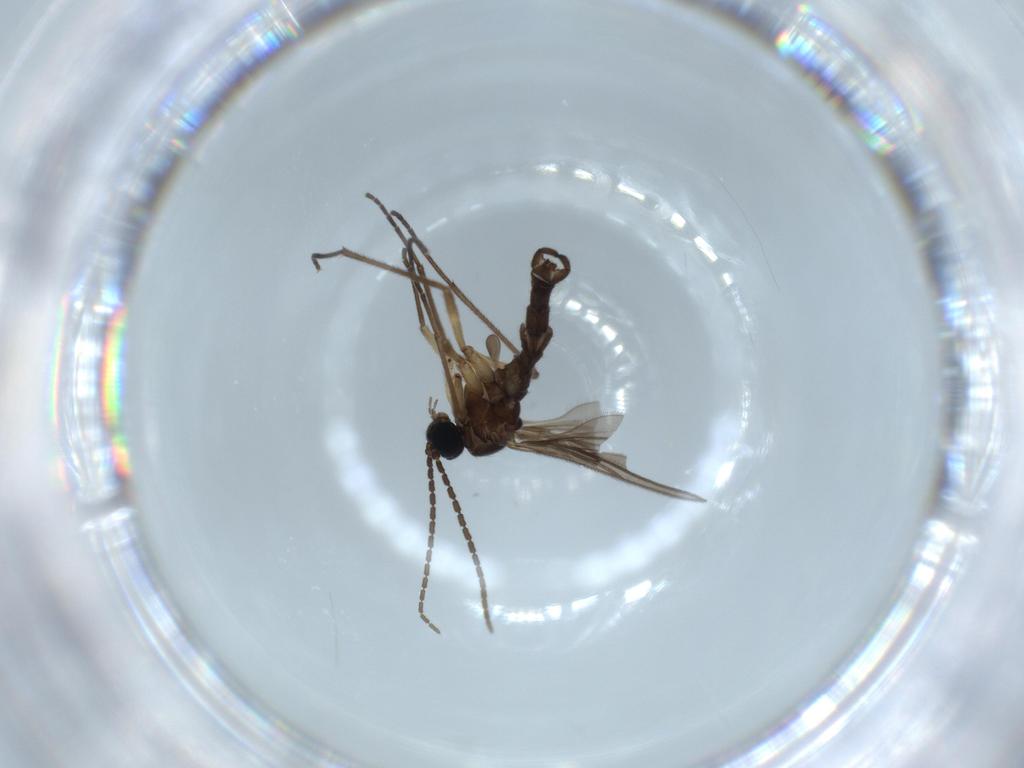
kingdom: Animalia
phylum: Arthropoda
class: Insecta
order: Diptera
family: Sciaridae
